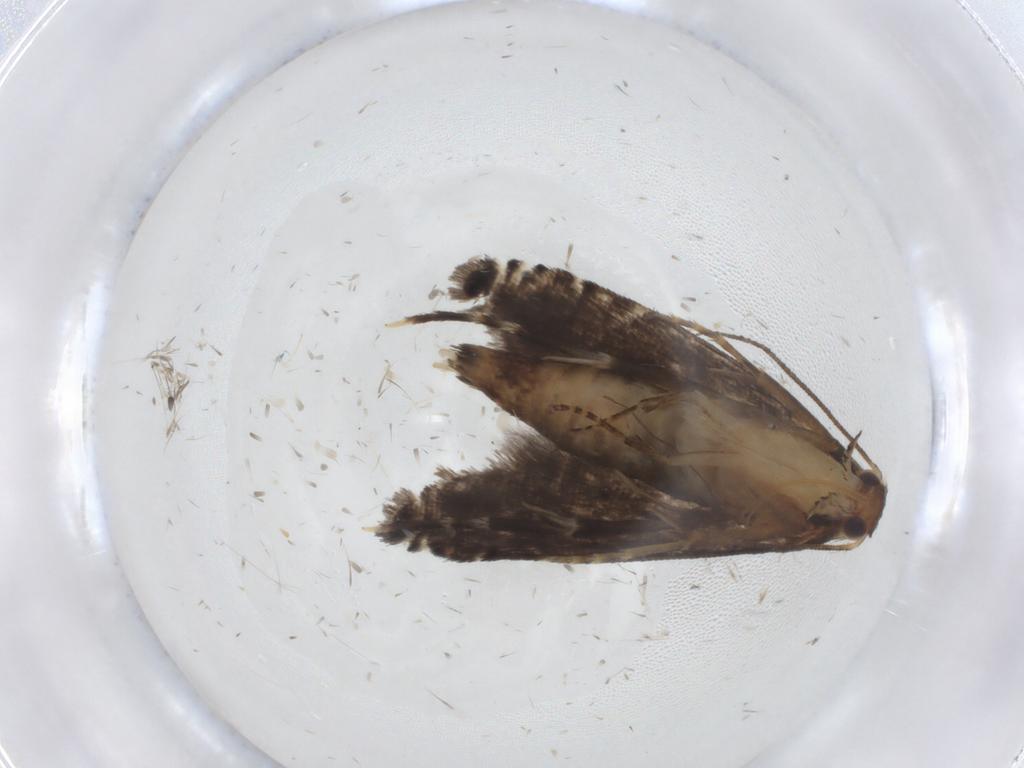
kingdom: Animalia
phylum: Arthropoda
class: Insecta
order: Lepidoptera
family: Glyphipterigidae
